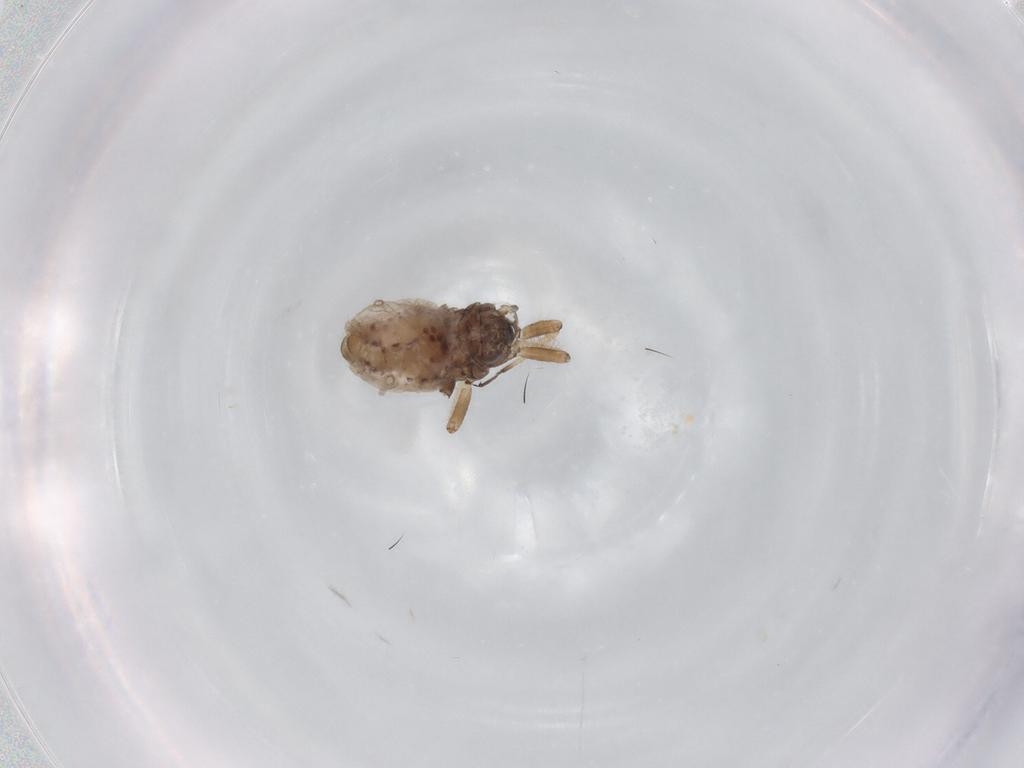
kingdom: Animalia
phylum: Arthropoda
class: Insecta
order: Hemiptera
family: Aphididae
